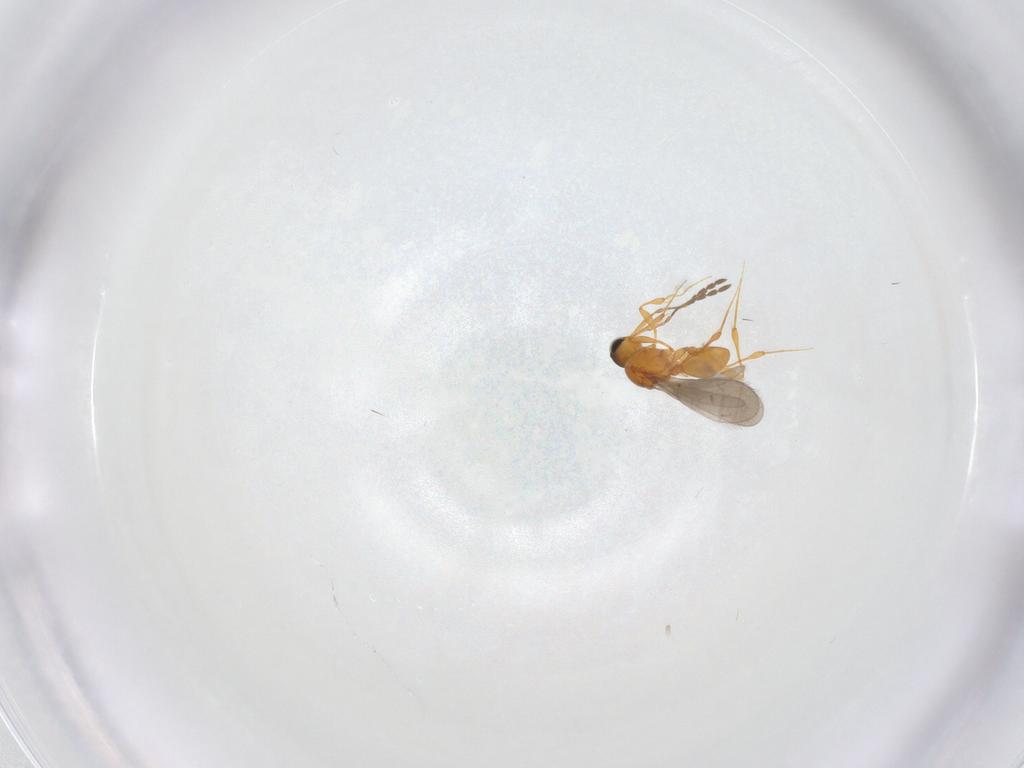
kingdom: Animalia
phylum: Arthropoda
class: Insecta
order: Hymenoptera
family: Platygastridae
